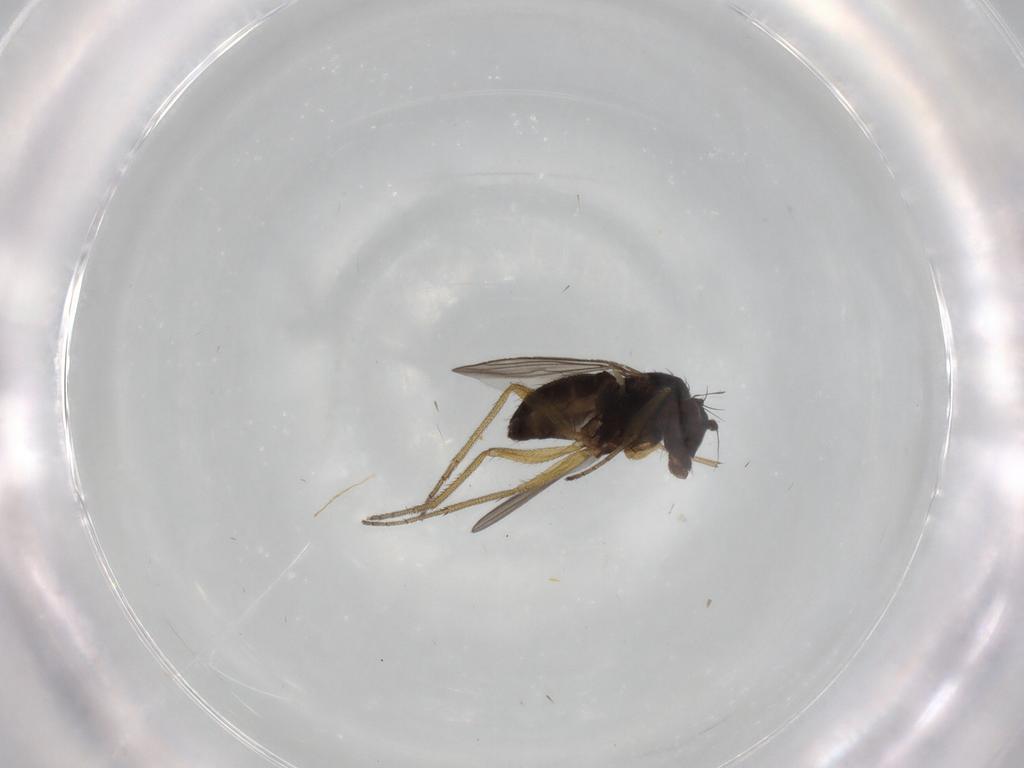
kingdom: Animalia
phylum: Arthropoda
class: Insecta
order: Diptera
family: Dolichopodidae
